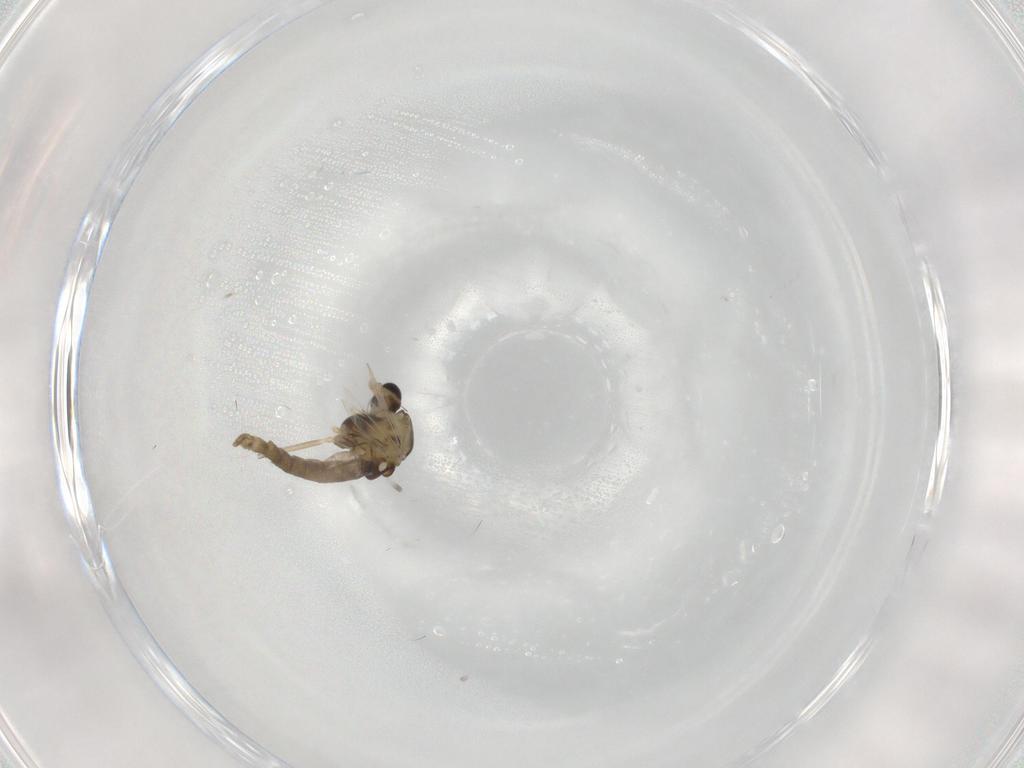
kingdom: Animalia
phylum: Arthropoda
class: Insecta
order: Diptera
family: Chironomidae
